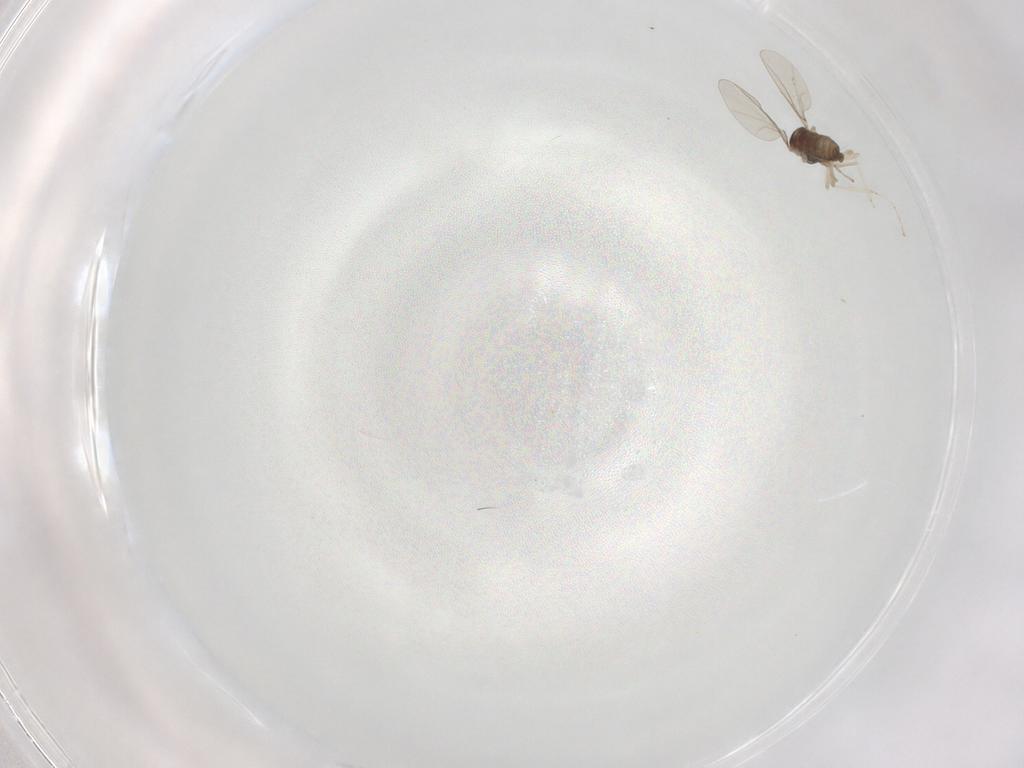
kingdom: Animalia
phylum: Arthropoda
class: Insecta
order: Diptera
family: Cecidomyiidae
